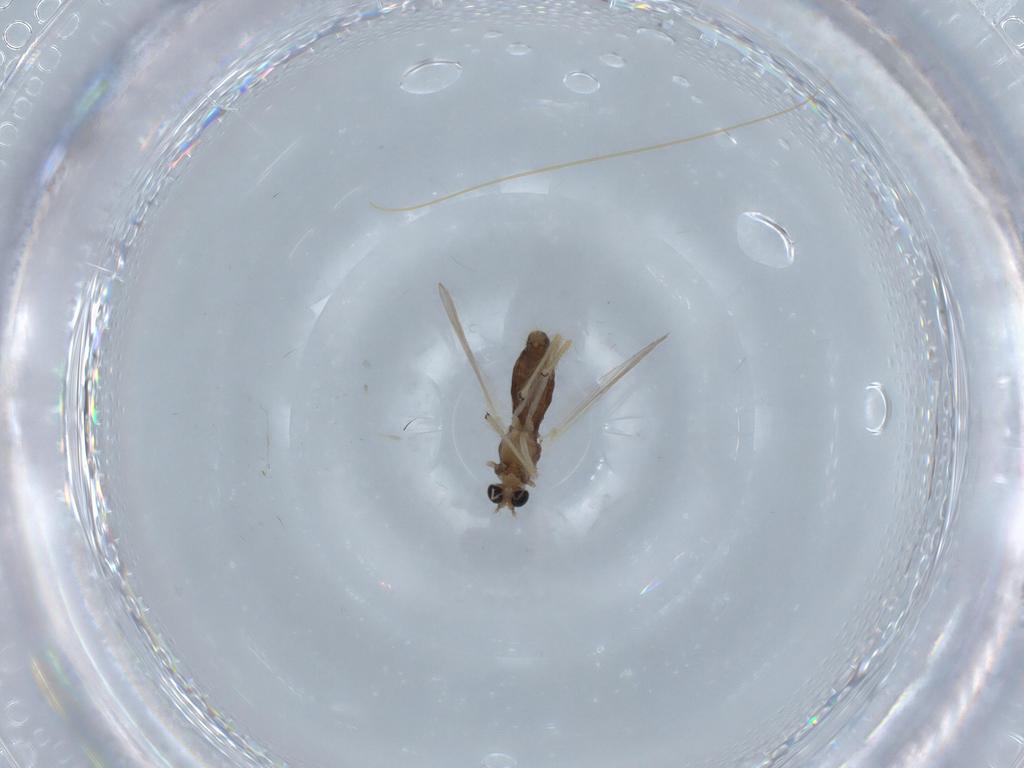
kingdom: Animalia
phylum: Arthropoda
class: Insecta
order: Diptera
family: Chironomidae
